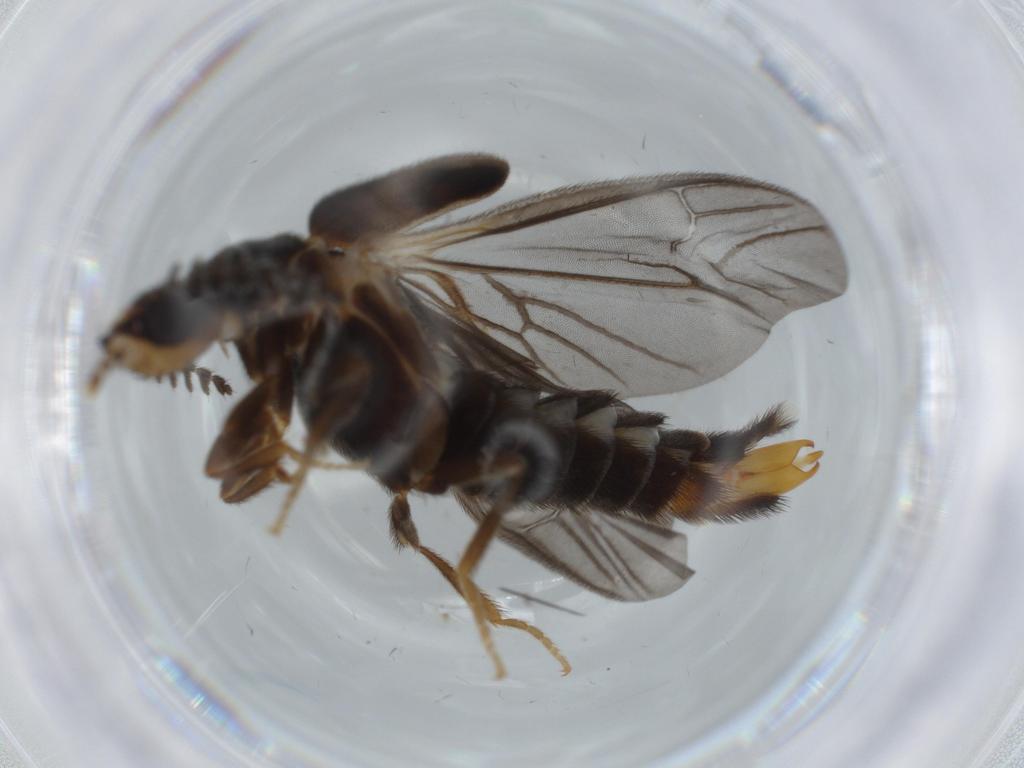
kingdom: Animalia
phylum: Arthropoda
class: Insecta
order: Coleoptera
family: Phengodidae
